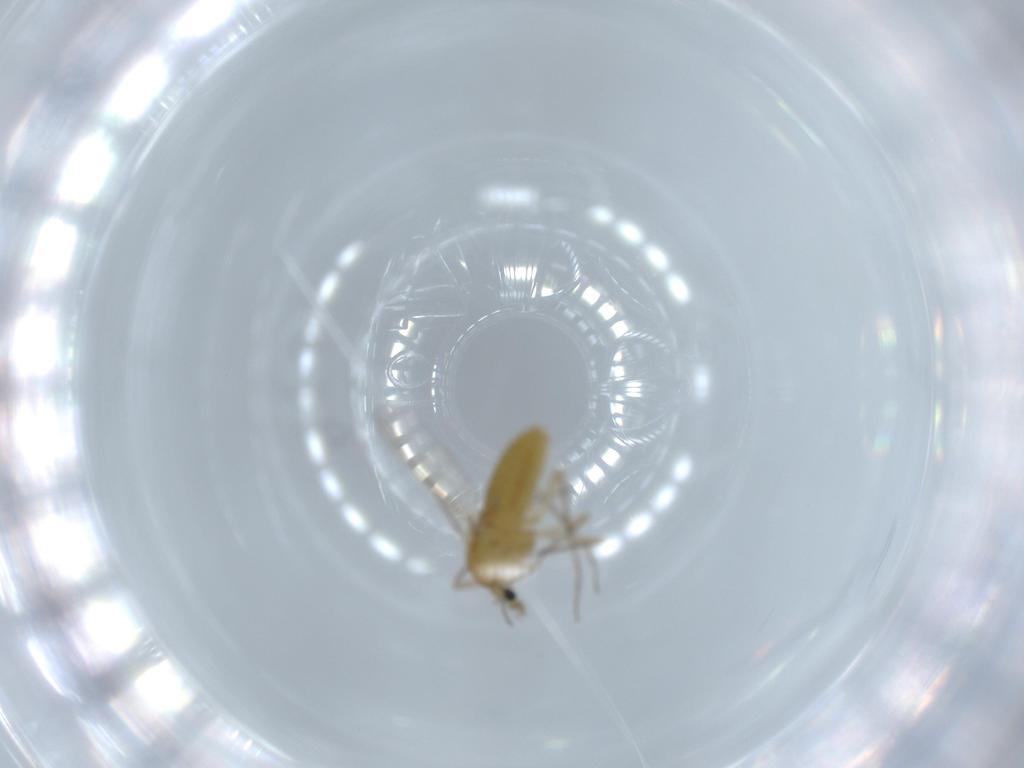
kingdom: Animalia
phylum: Arthropoda
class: Insecta
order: Diptera
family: Chironomidae
